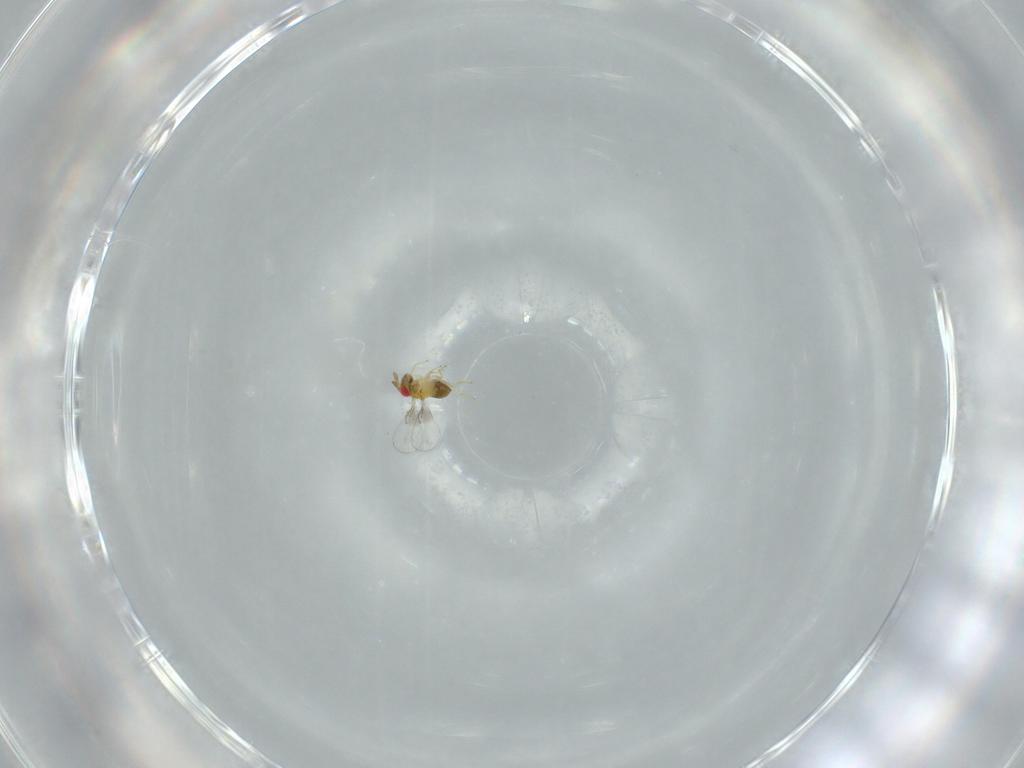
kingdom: Animalia
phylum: Arthropoda
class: Insecta
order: Hymenoptera
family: Trichogrammatidae
